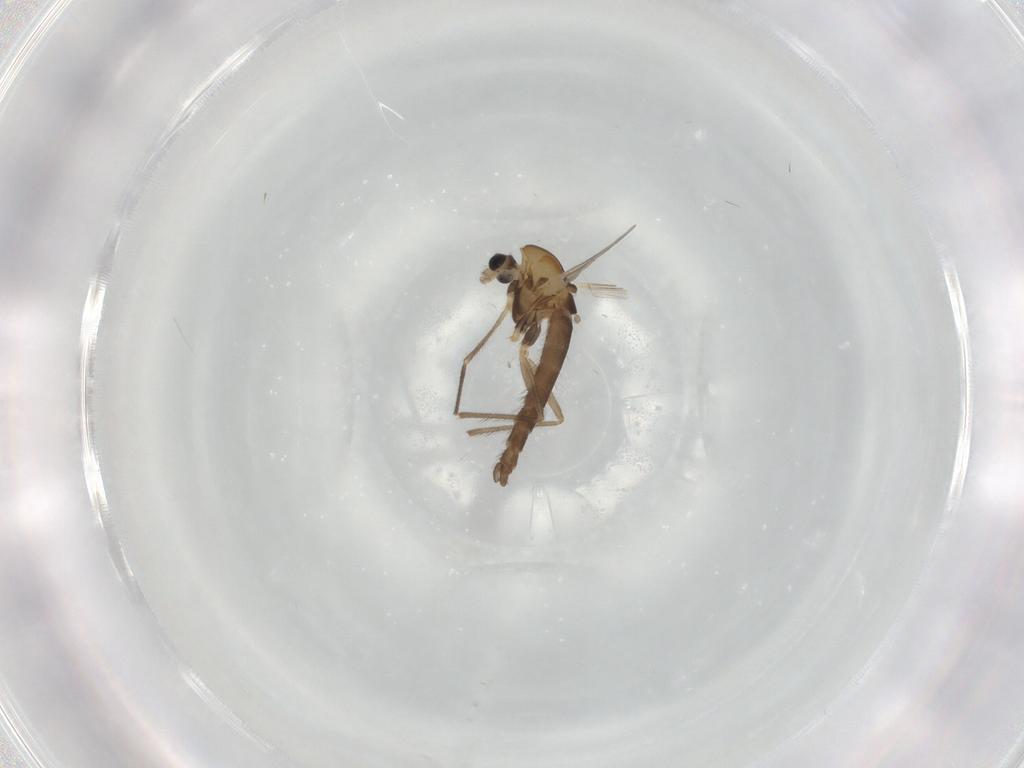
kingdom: Animalia
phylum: Arthropoda
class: Insecta
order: Diptera
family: Chironomidae
